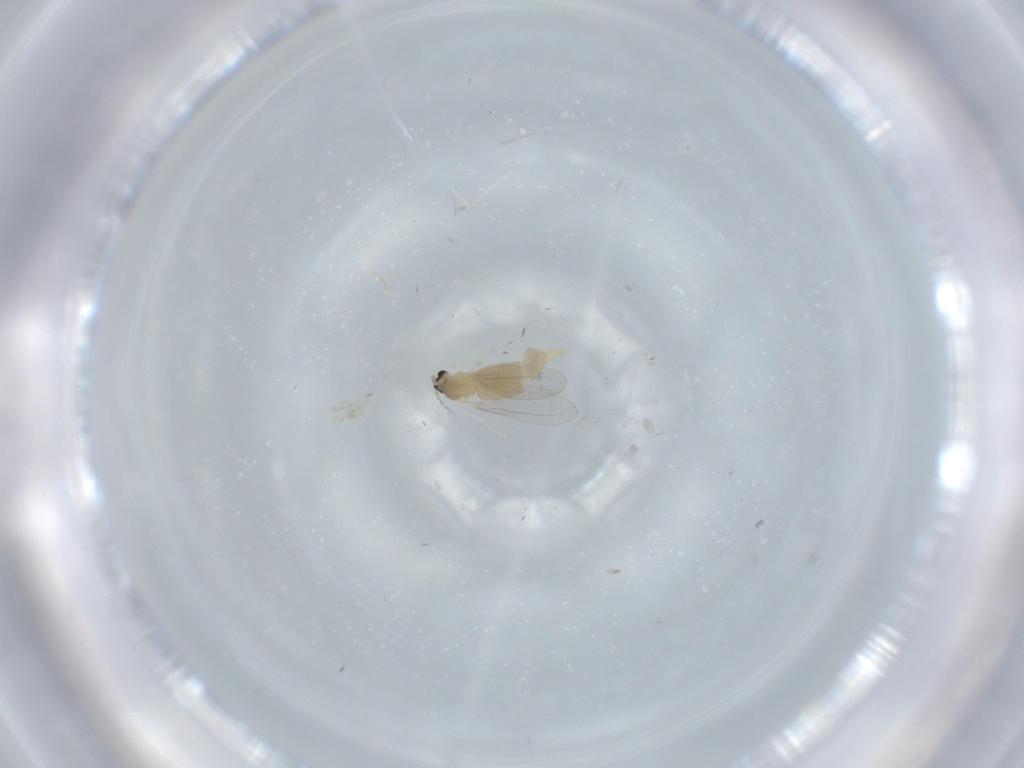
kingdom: Animalia
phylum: Arthropoda
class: Insecta
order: Diptera
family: Cecidomyiidae
